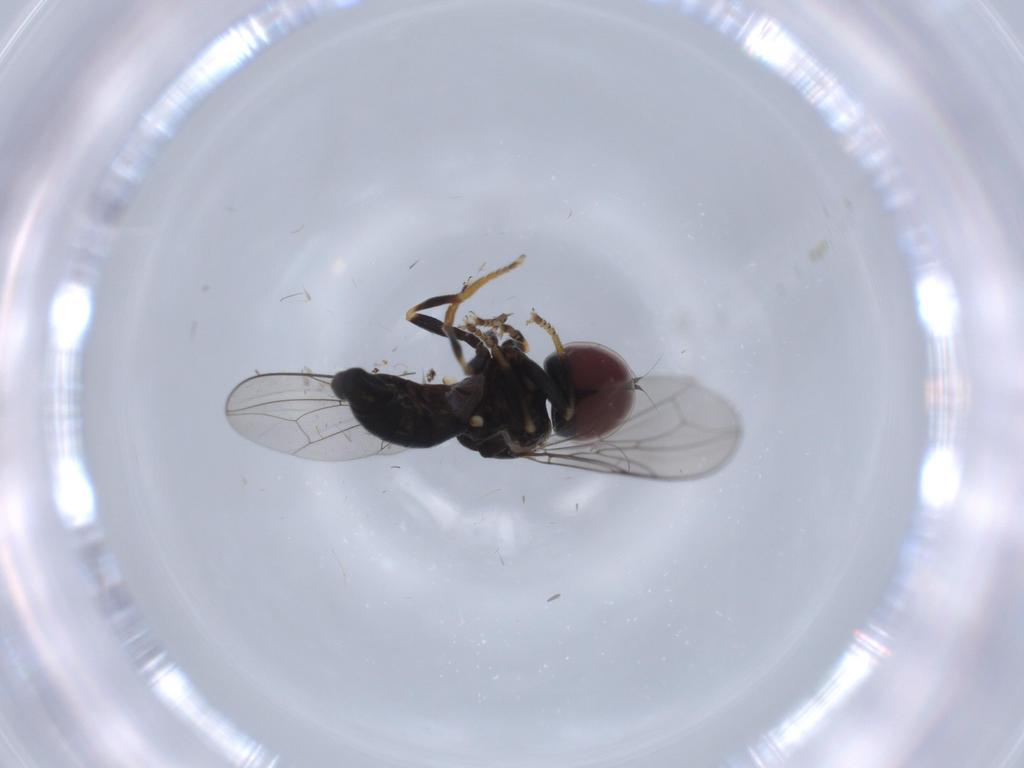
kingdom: Animalia
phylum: Arthropoda
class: Insecta
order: Diptera
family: Pipunculidae
